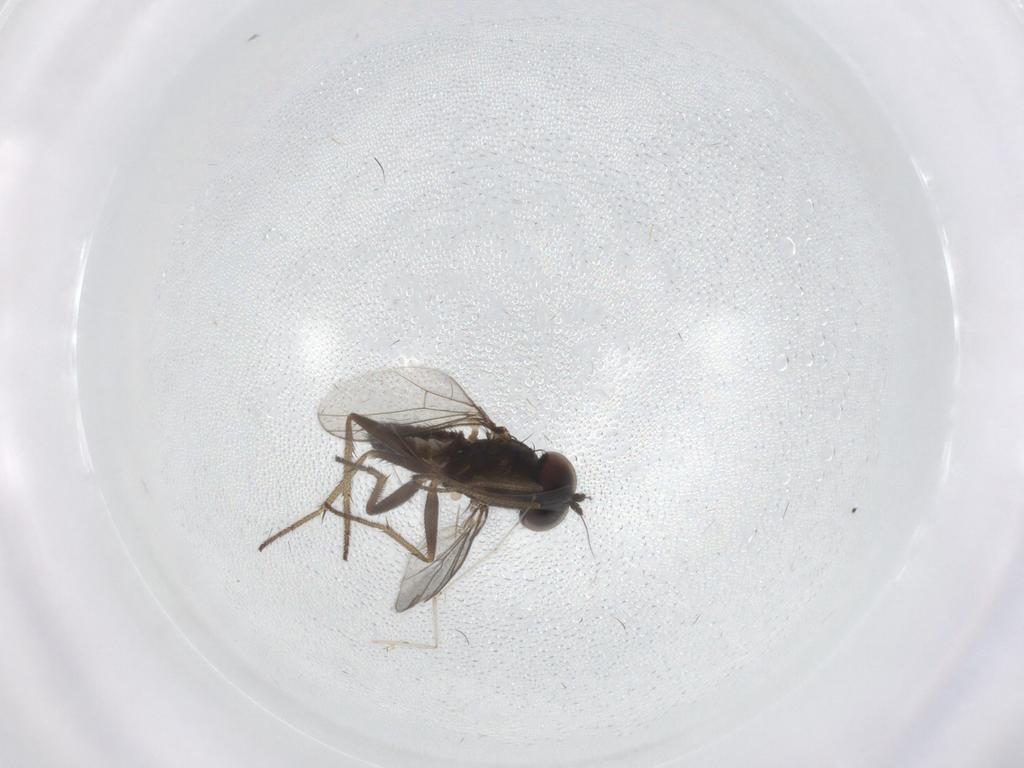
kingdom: Animalia
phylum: Arthropoda
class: Insecta
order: Diptera
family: Psychodidae
